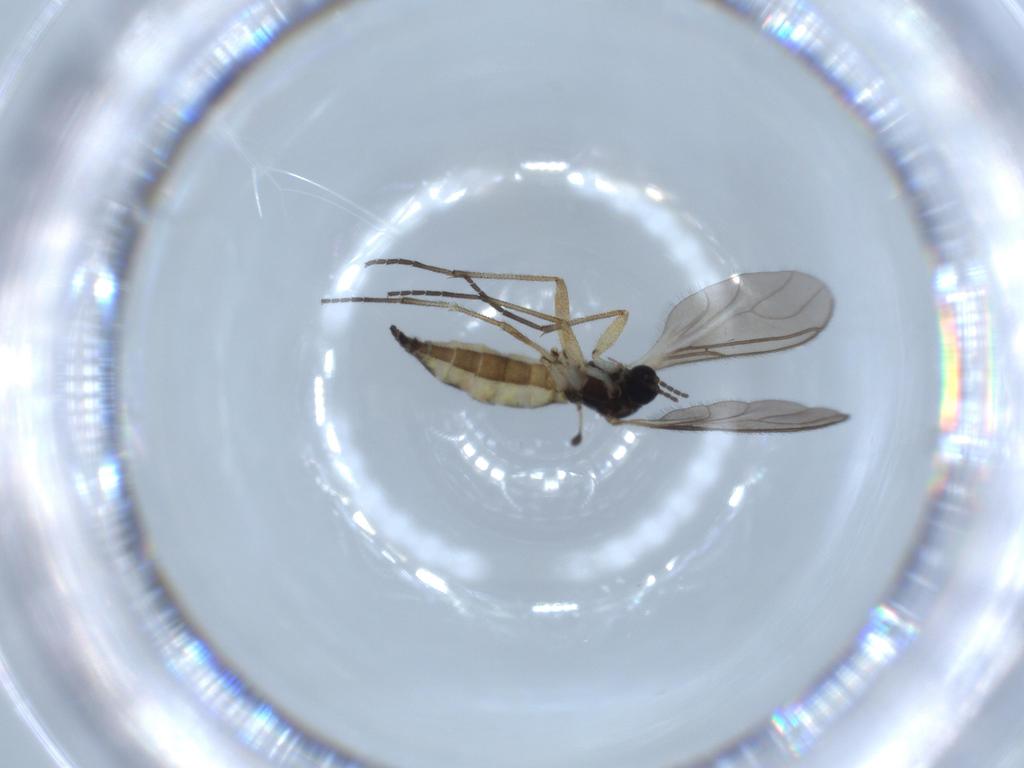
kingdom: Animalia
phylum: Arthropoda
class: Insecta
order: Diptera
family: Sciaridae
